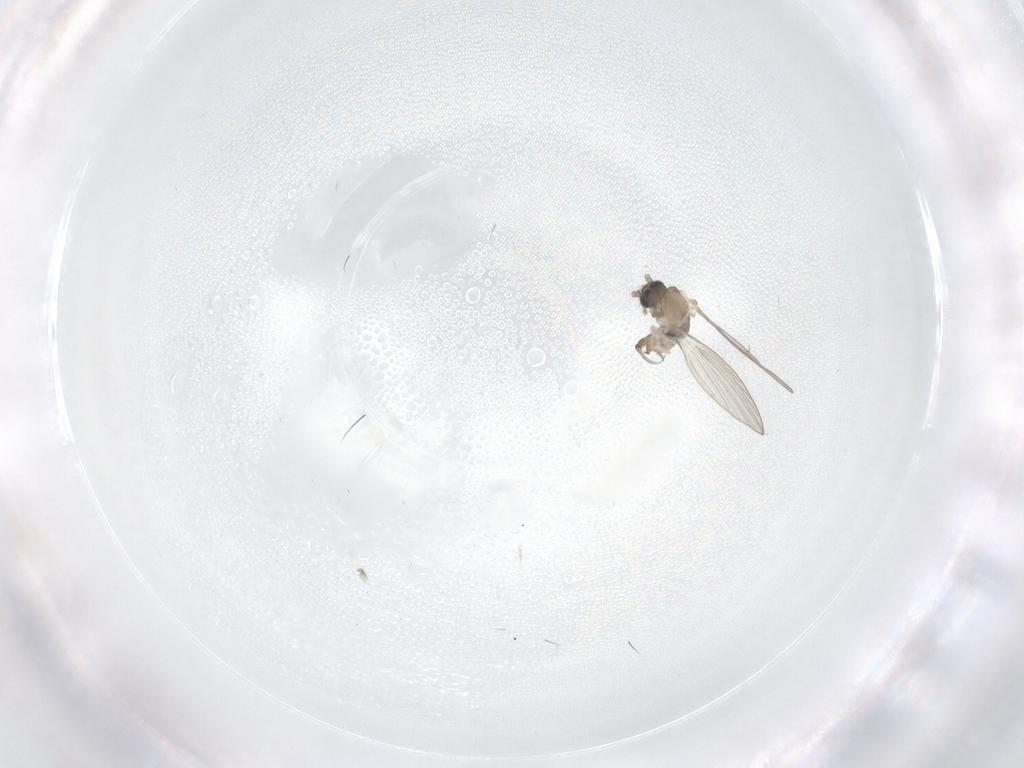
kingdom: Animalia
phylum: Arthropoda
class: Insecta
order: Diptera
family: Psychodidae
